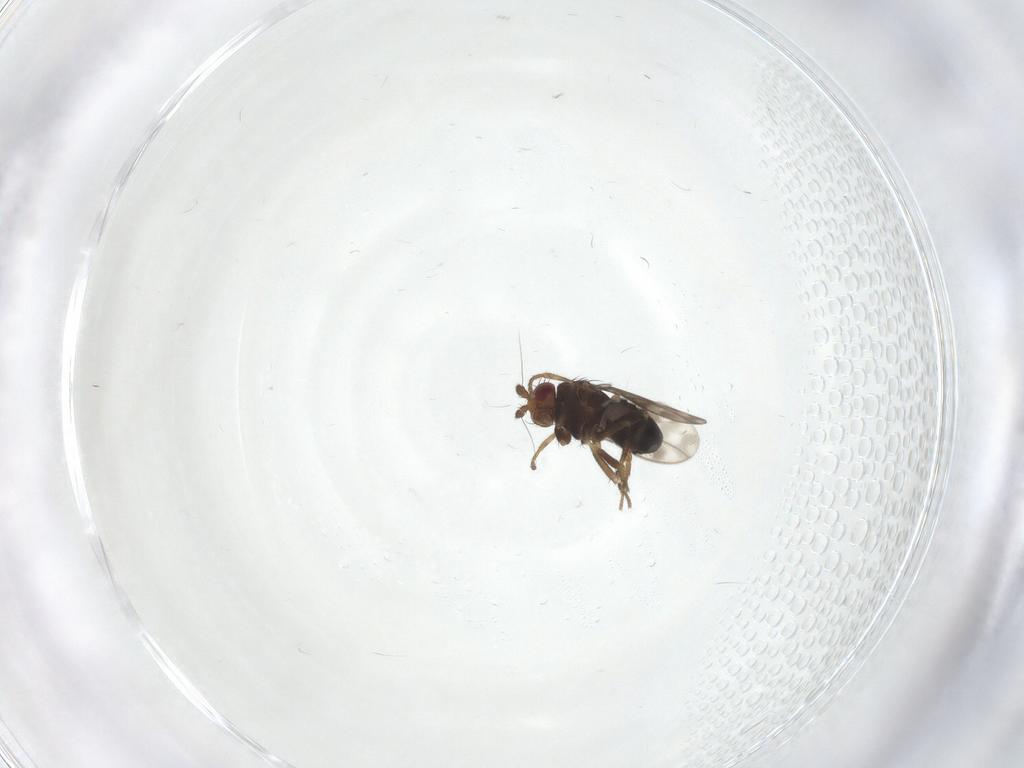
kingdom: Animalia
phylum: Arthropoda
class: Insecta
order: Diptera
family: Sphaeroceridae
